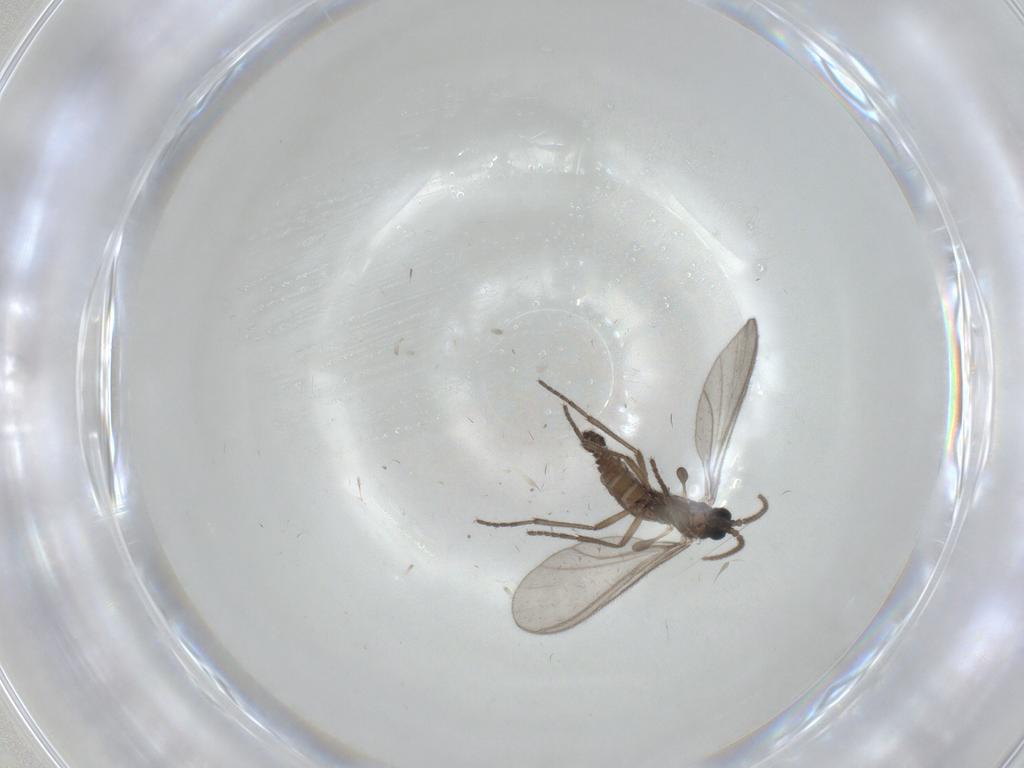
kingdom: Animalia
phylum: Arthropoda
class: Insecta
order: Diptera
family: Sciaridae
